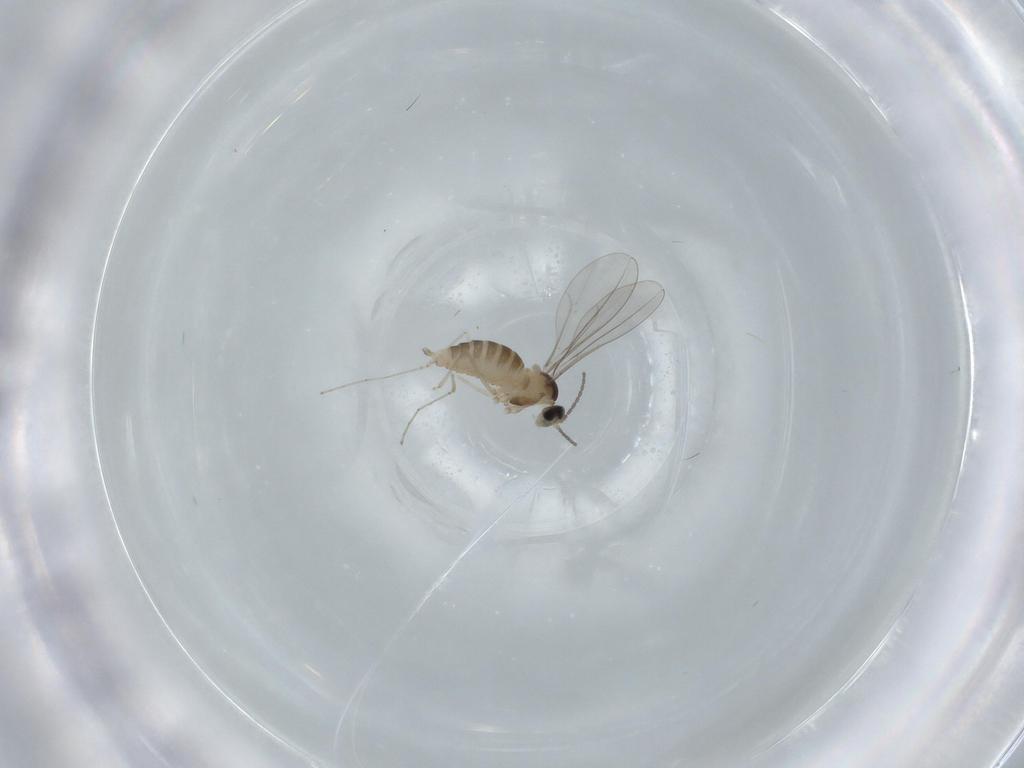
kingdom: Animalia
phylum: Arthropoda
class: Insecta
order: Diptera
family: Cecidomyiidae
